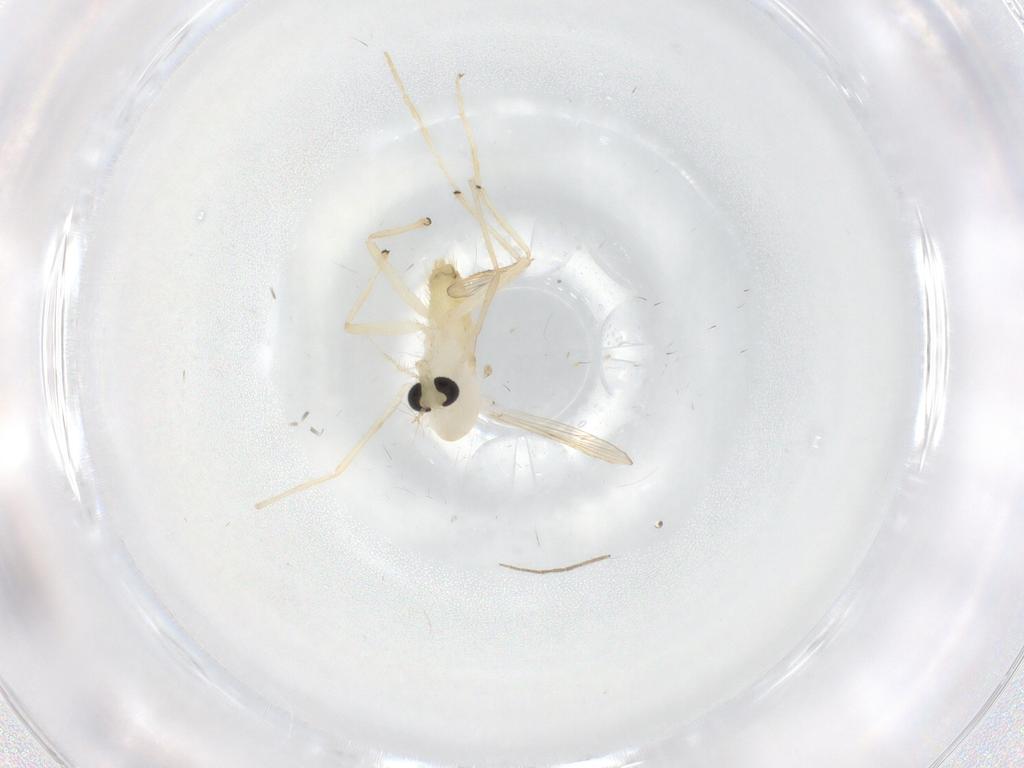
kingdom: Animalia
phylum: Arthropoda
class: Insecta
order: Diptera
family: Chironomidae
